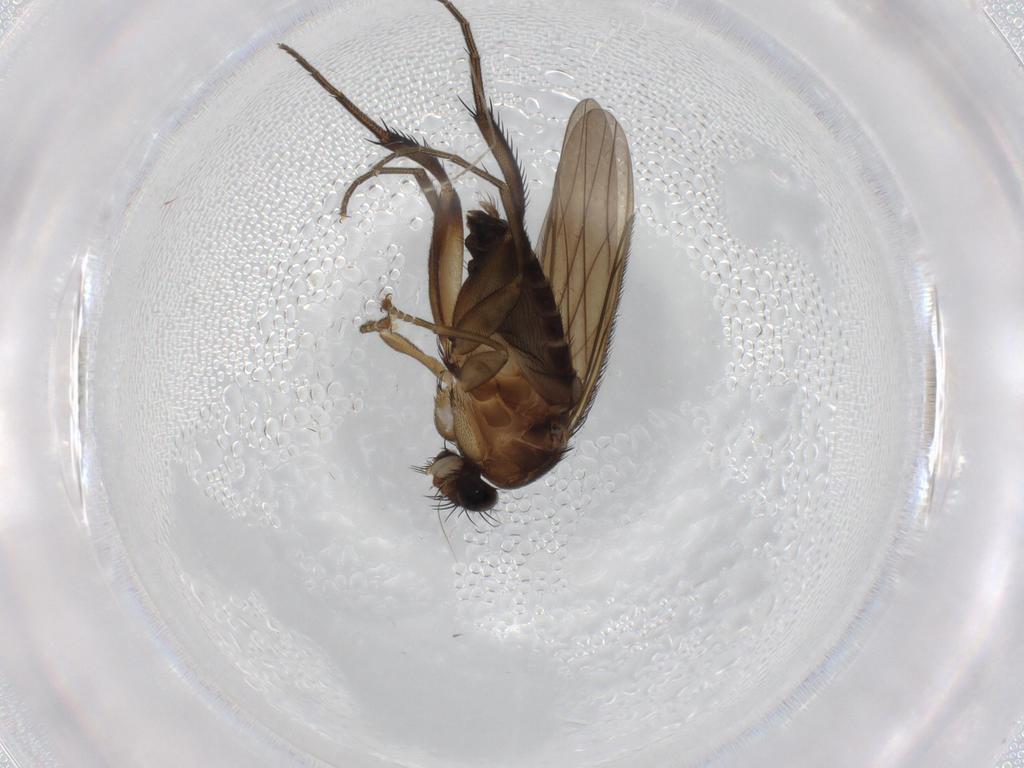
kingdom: Animalia
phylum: Arthropoda
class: Insecta
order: Diptera
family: Phoridae
